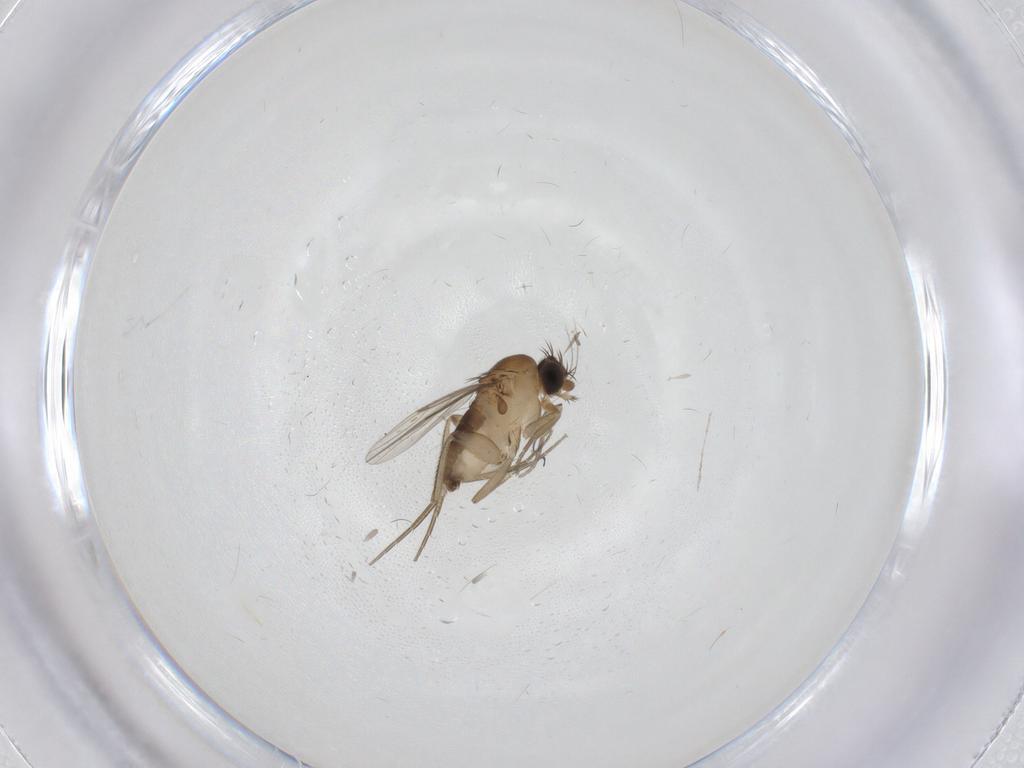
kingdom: Animalia
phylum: Arthropoda
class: Insecta
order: Diptera
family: Phoridae
